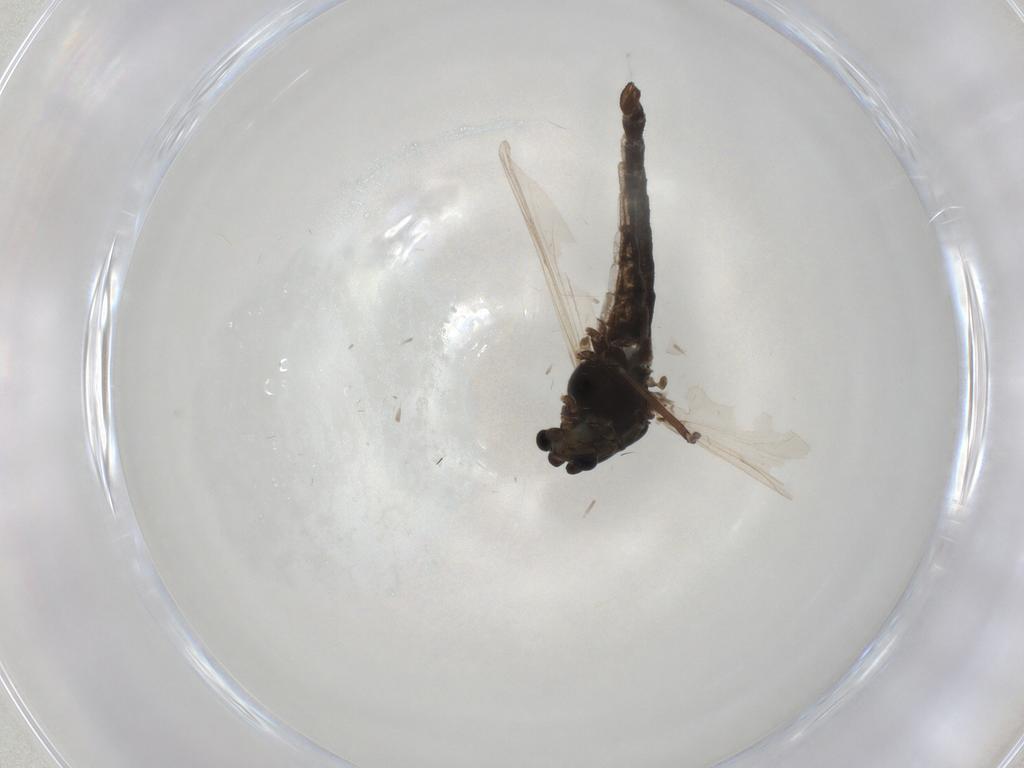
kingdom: Animalia
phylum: Arthropoda
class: Insecta
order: Diptera
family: Chironomidae
